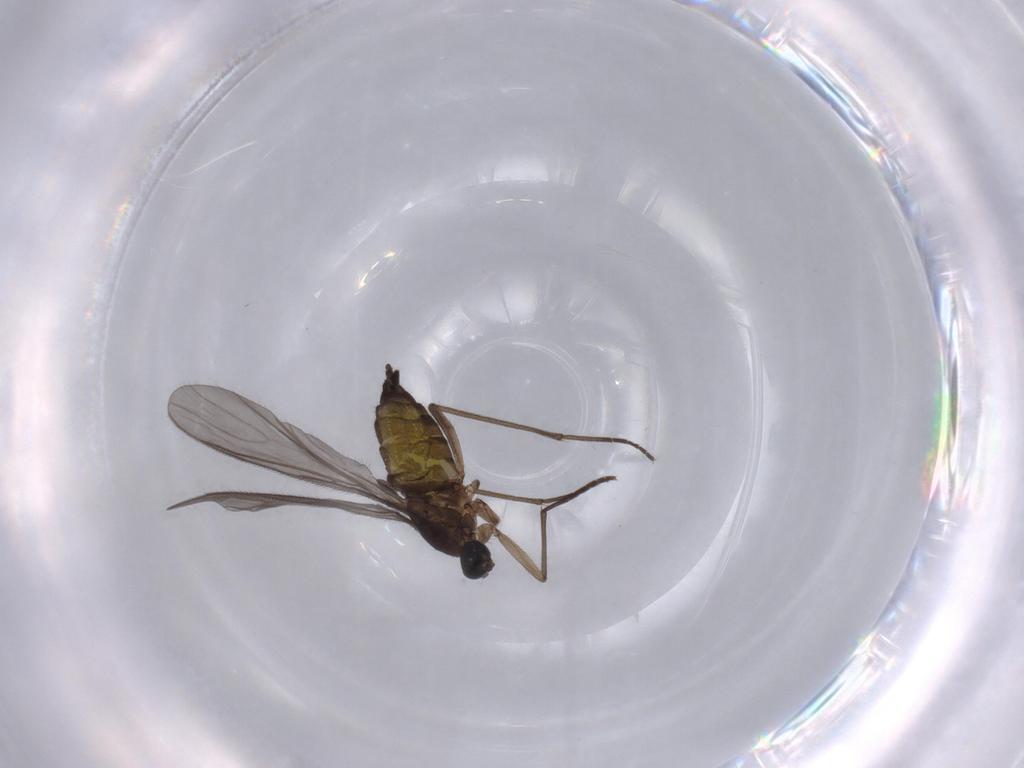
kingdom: Animalia
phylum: Arthropoda
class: Insecta
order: Diptera
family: Sciaridae
